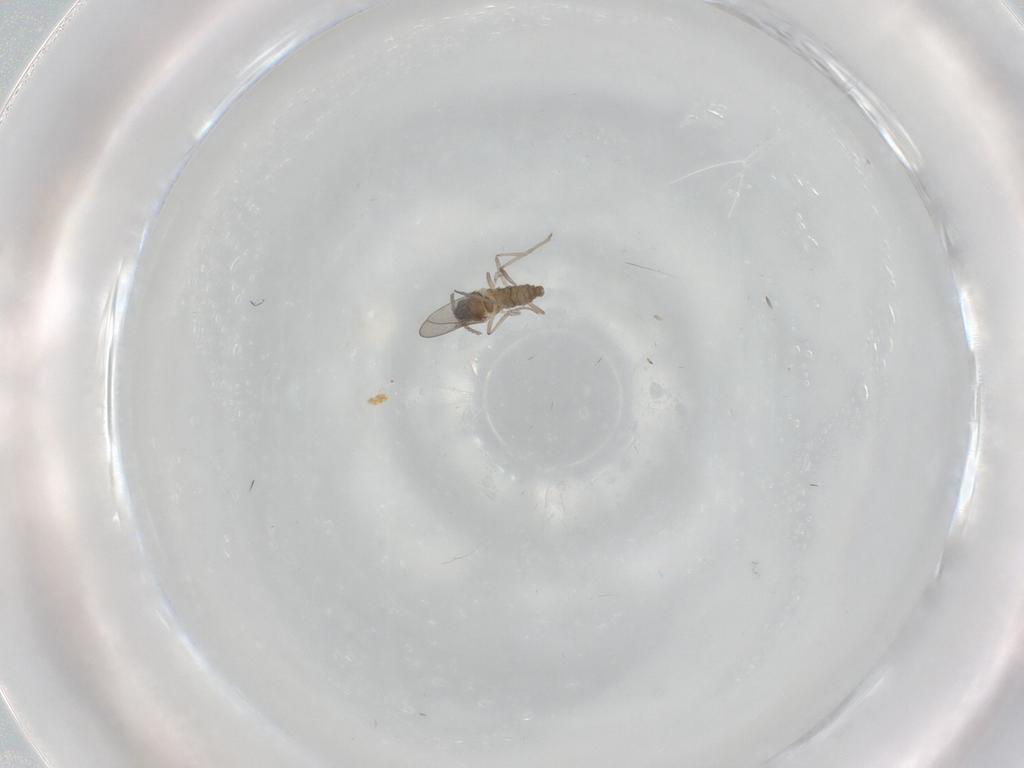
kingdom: Animalia
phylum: Arthropoda
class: Insecta
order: Diptera
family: Cecidomyiidae
